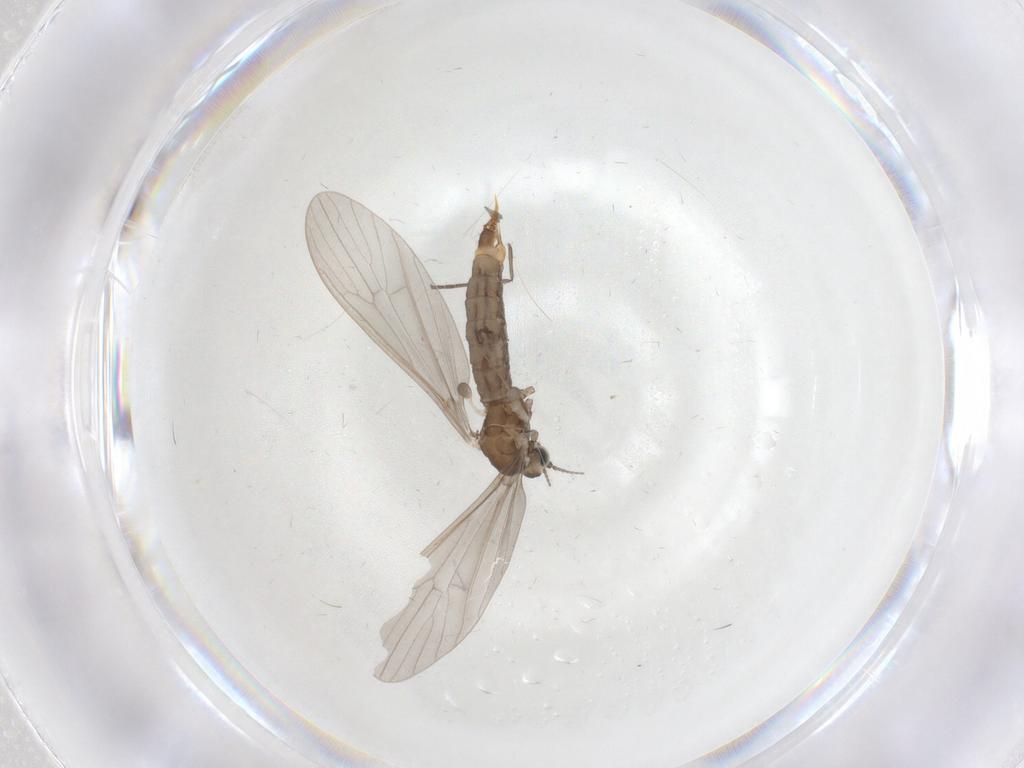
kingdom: Animalia
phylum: Arthropoda
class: Insecta
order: Diptera
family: Limoniidae
